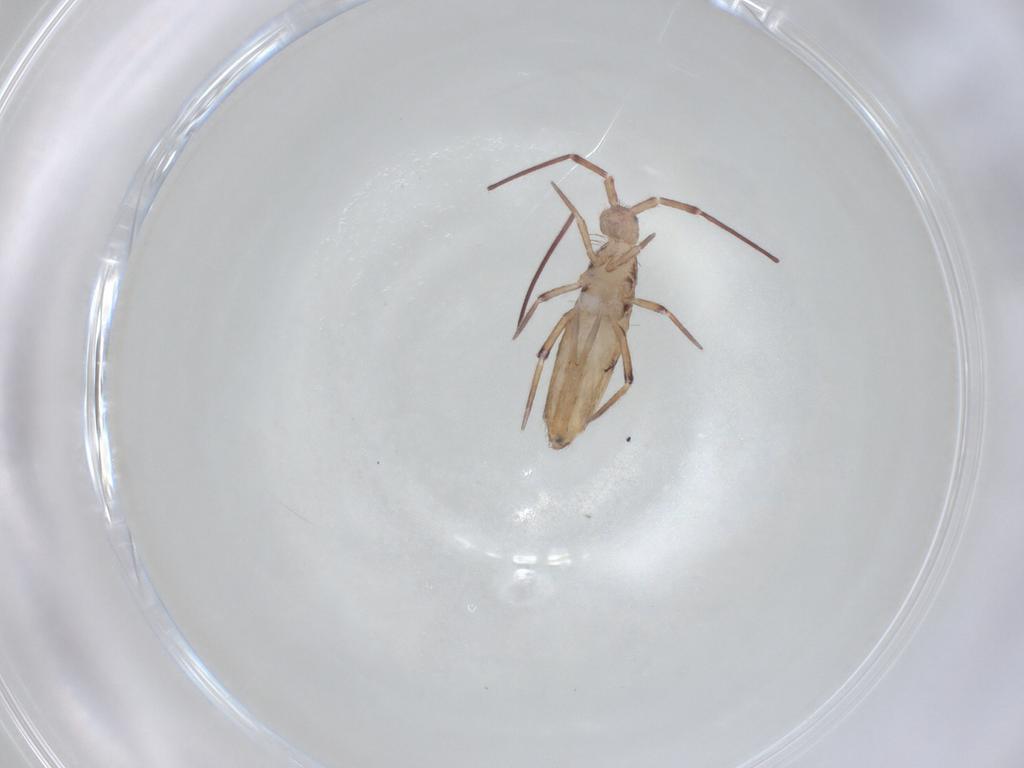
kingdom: Animalia
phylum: Arthropoda
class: Collembola
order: Entomobryomorpha
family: Entomobryidae
